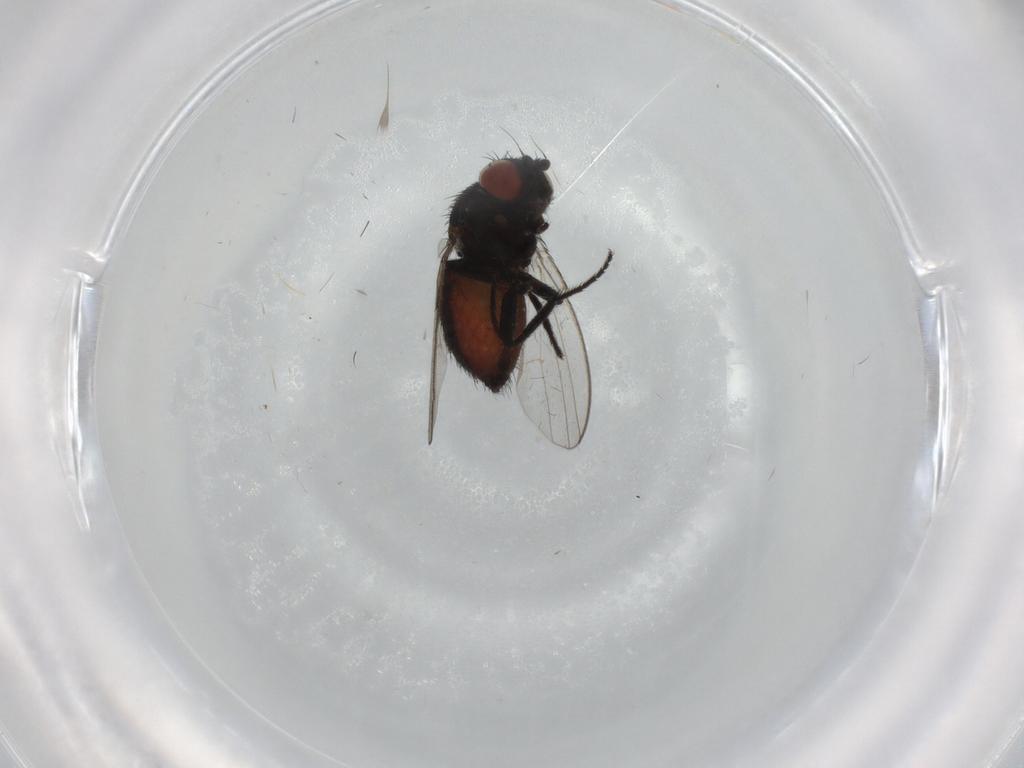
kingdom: Animalia
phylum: Arthropoda
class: Insecta
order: Diptera
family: Milichiidae
